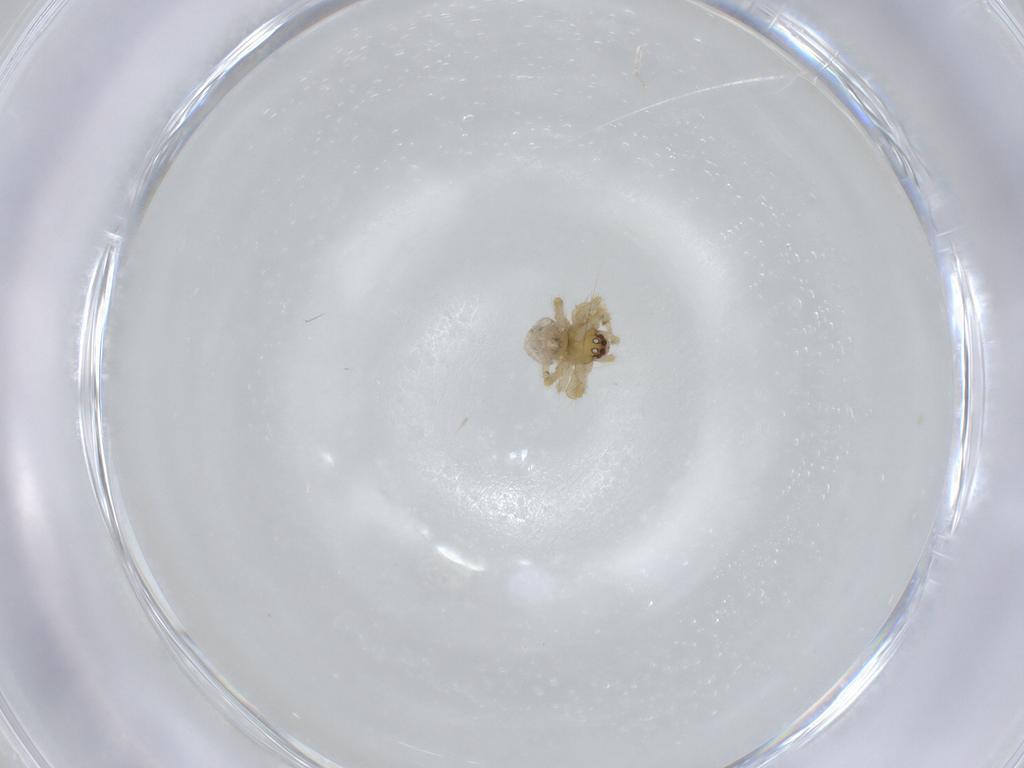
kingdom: Animalia
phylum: Arthropoda
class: Arachnida
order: Araneae
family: Theridiidae
